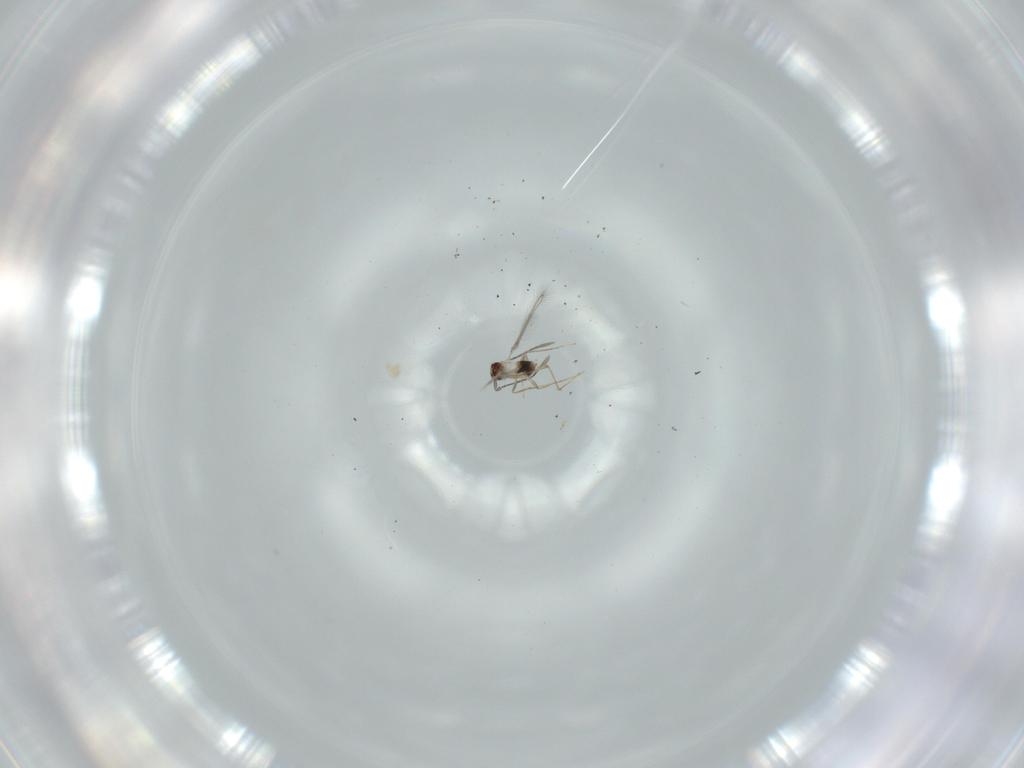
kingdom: Animalia
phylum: Arthropoda
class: Insecta
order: Hymenoptera
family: Mymaridae
